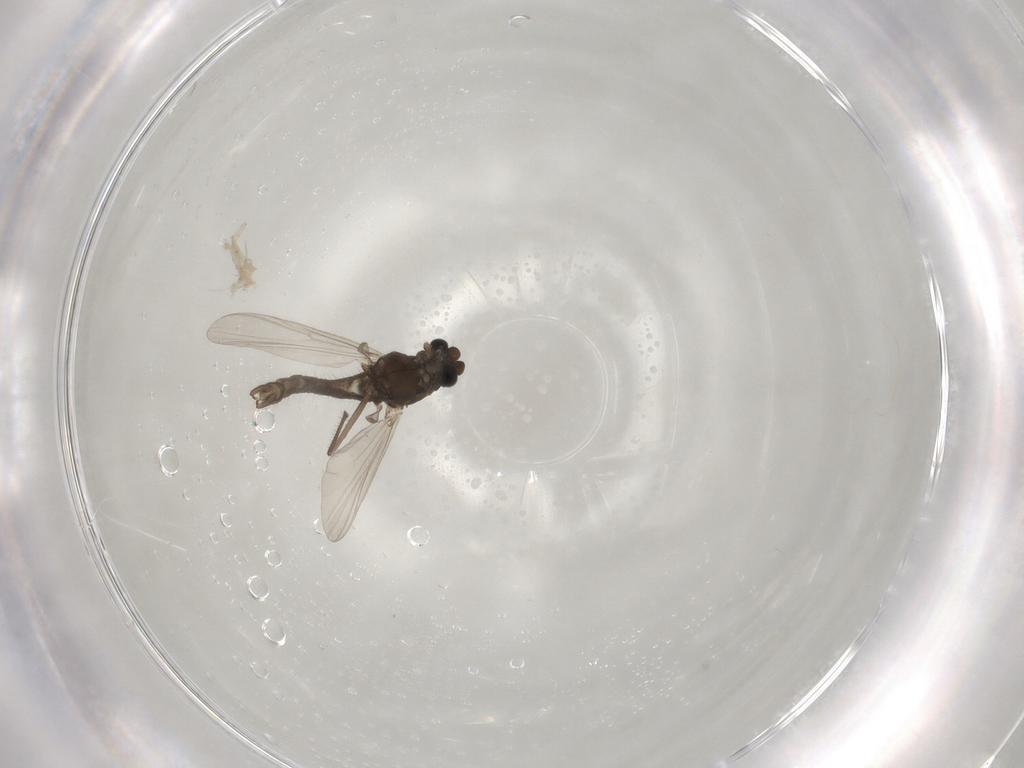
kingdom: Animalia
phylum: Arthropoda
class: Insecta
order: Diptera
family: Chironomidae
